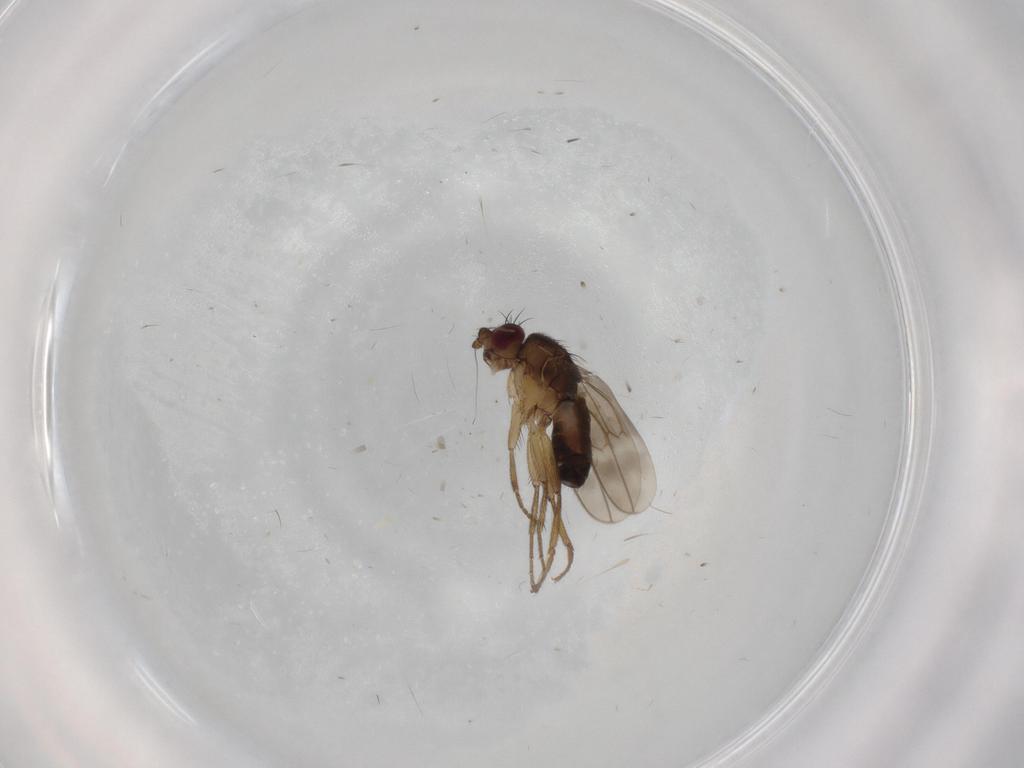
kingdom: Animalia
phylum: Arthropoda
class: Insecta
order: Diptera
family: Sphaeroceridae
